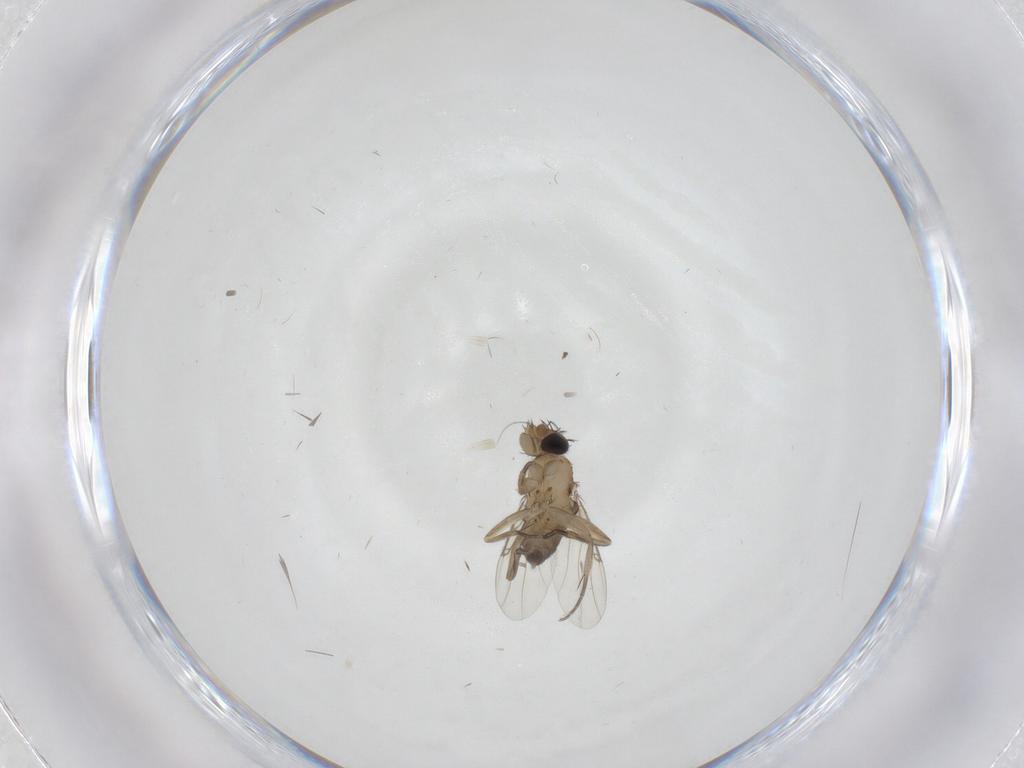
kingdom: Animalia
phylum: Arthropoda
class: Insecta
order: Diptera
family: Phoridae
